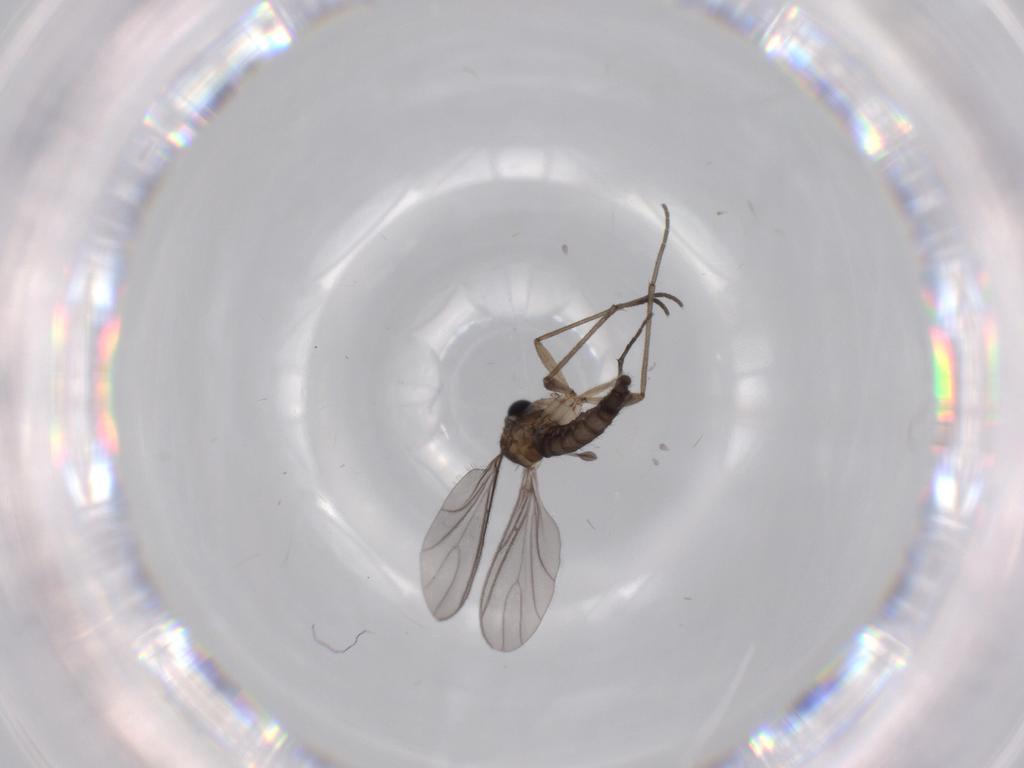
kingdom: Animalia
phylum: Arthropoda
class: Insecta
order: Diptera
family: Sciaridae
